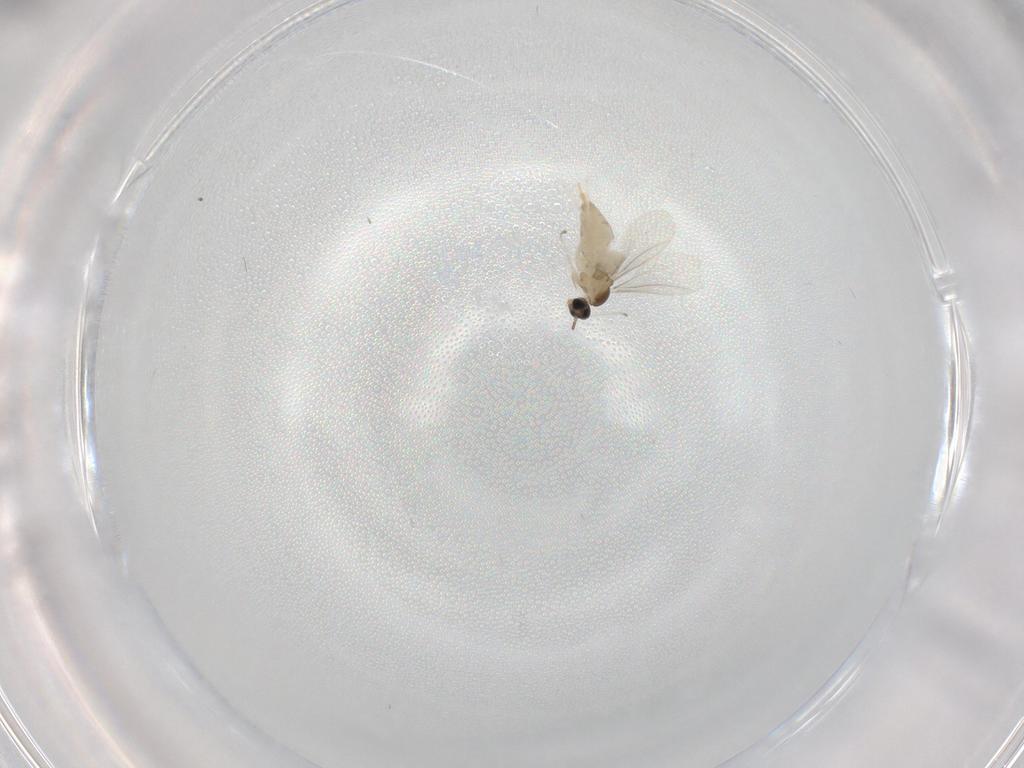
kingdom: Animalia
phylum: Arthropoda
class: Insecta
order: Diptera
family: Cecidomyiidae
